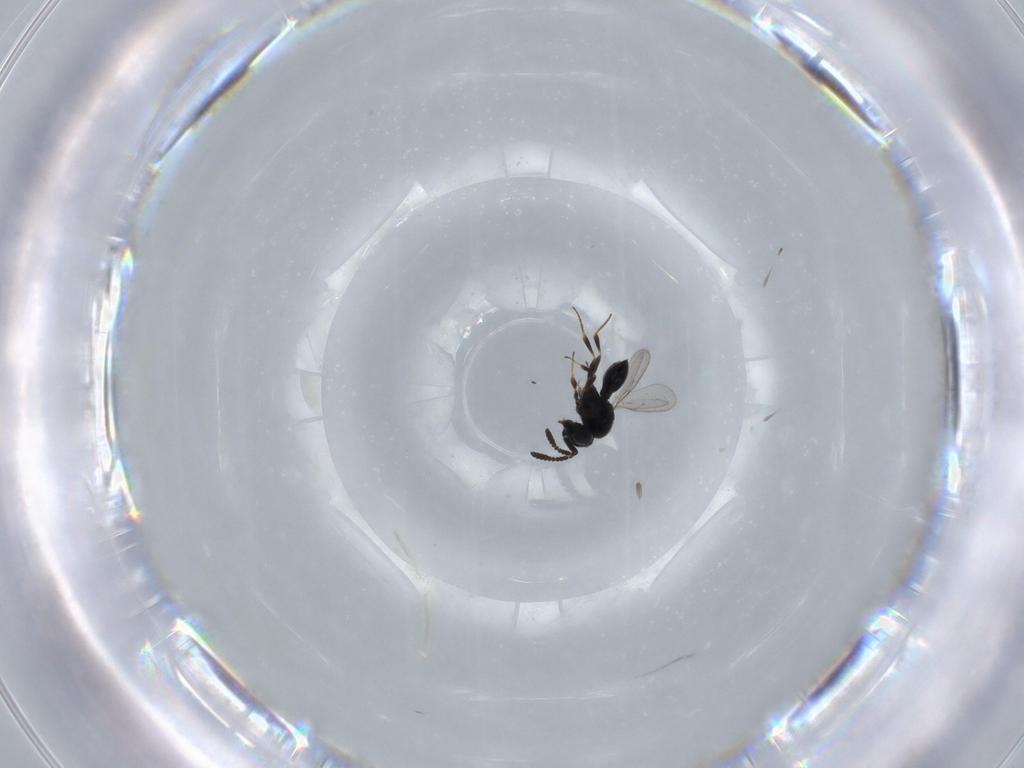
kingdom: Animalia
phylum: Arthropoda
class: Insecta
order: Hymenoptera
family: Scelionidae
